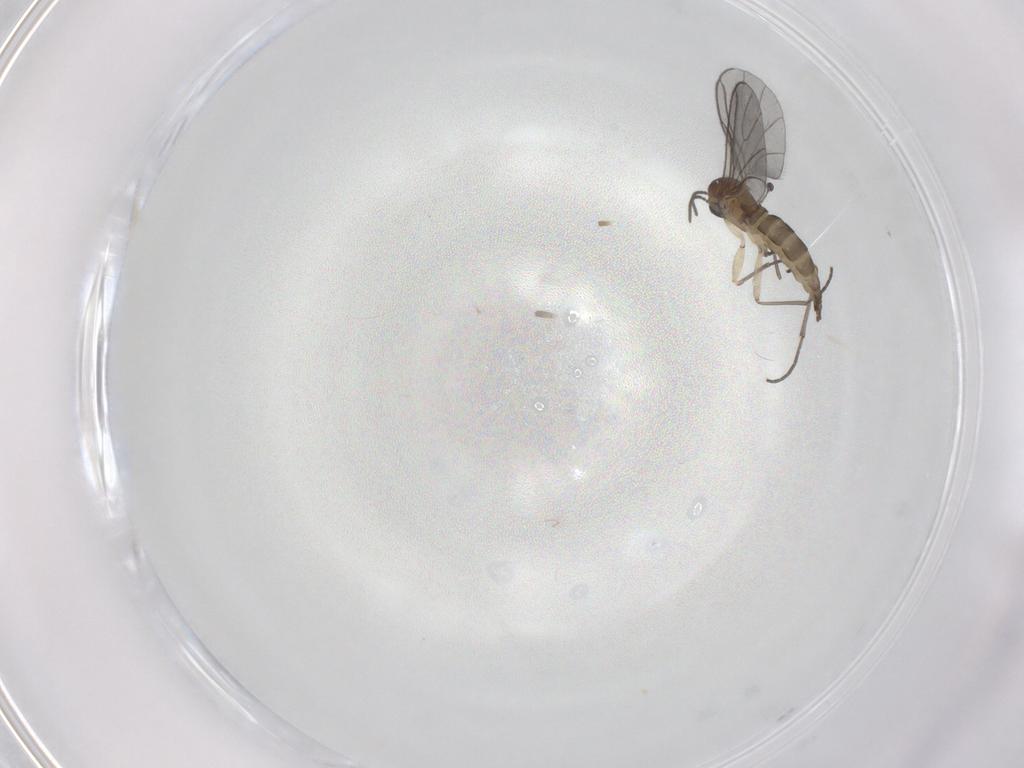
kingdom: Animalia
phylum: Arthropoda
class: Insecta
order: Diptera
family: Sciaridae
